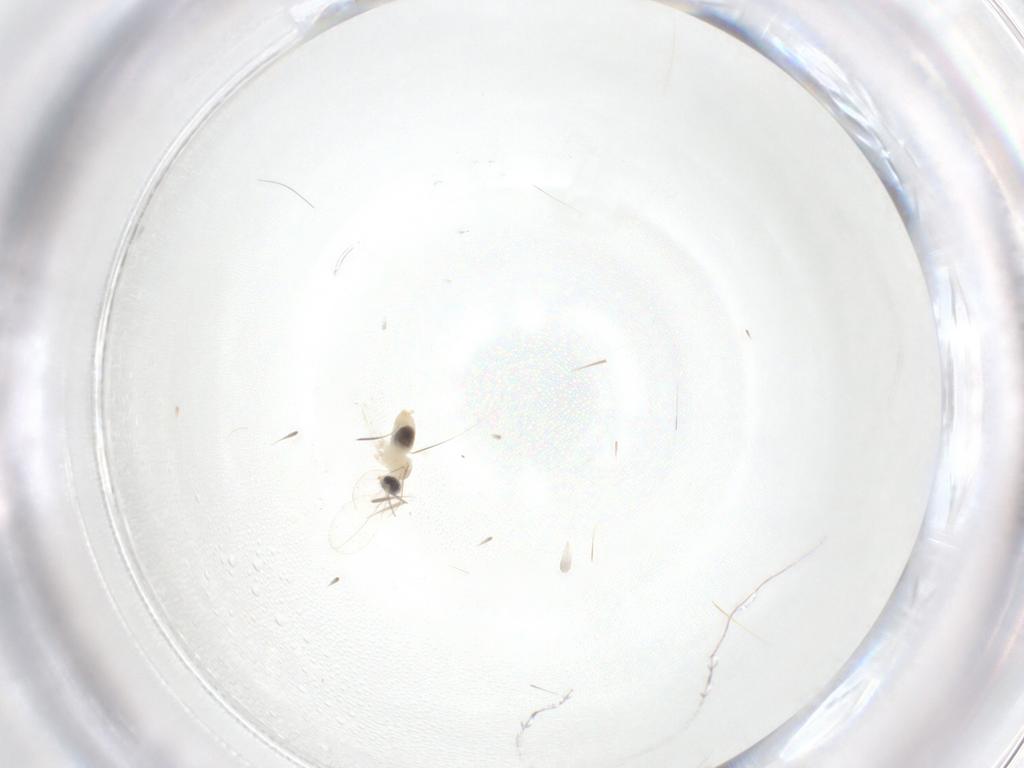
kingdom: Animalia
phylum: Arthropoda
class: Insecta
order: Diptera
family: Cecidomyiidae
